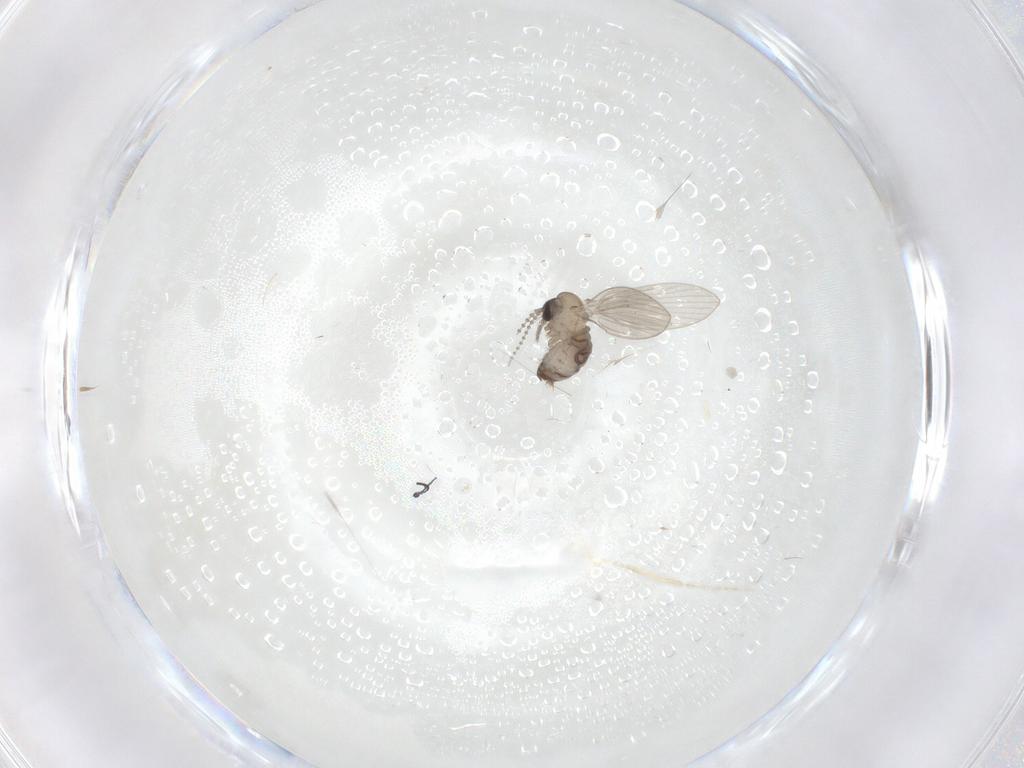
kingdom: Animalia
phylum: Arthropoda
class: Insecta
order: Diptera
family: Psychodidae
